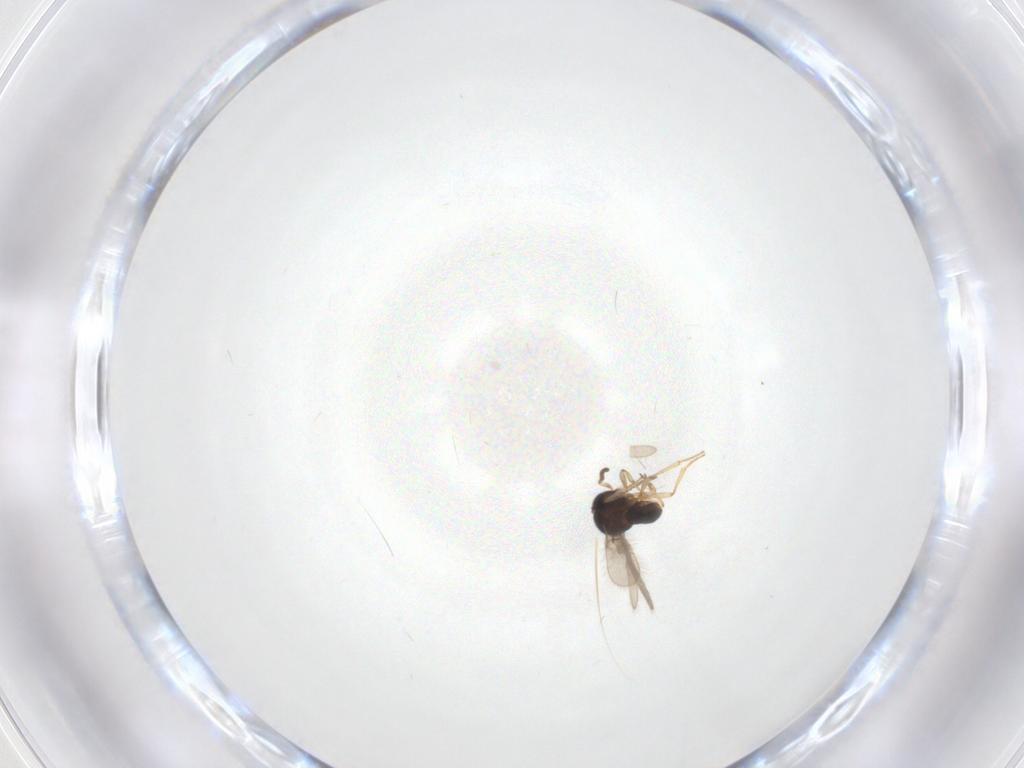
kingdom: Animalia
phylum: Arthropoda
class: Insecta
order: Hymenoptera
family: Scelionidae
